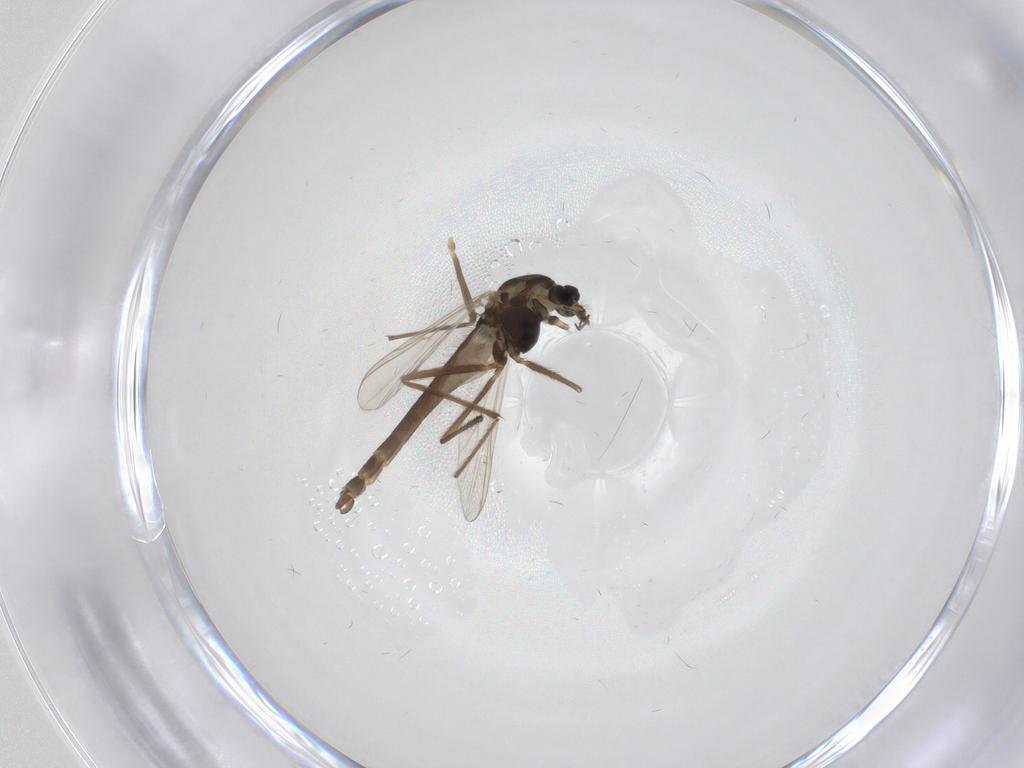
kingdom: Animalia
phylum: Arthropoda
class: Insecta
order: Diptera
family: Chironomidae
